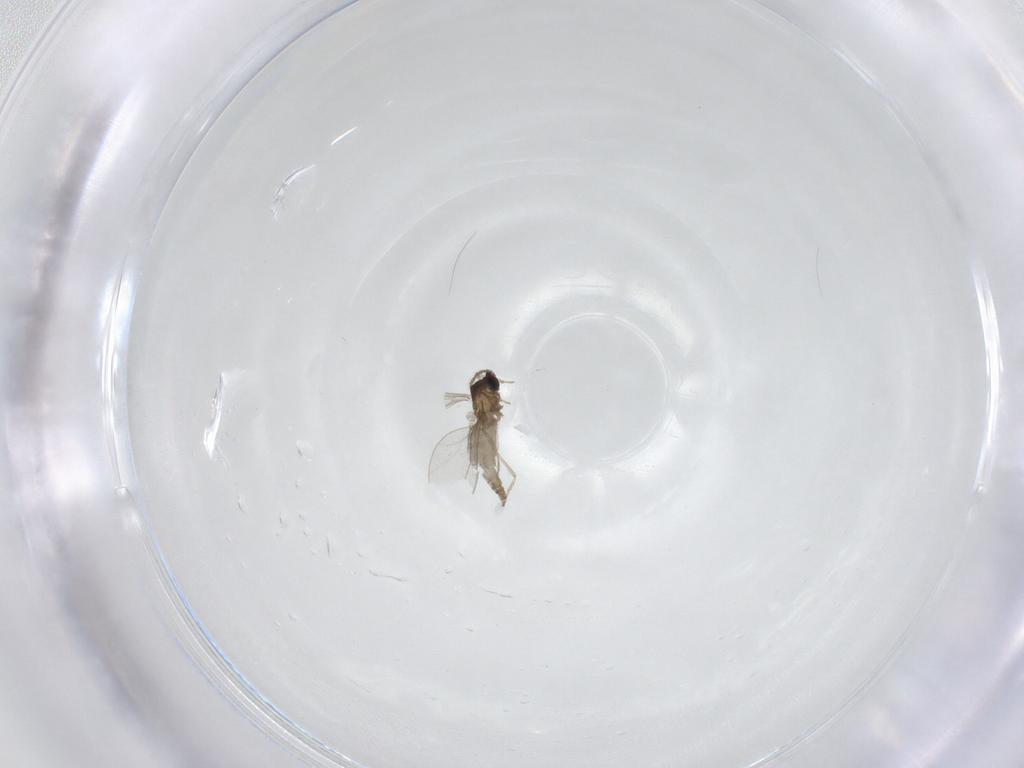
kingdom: Animalia
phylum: Arthropoda
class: Insecta
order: Diptera
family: Cecidomyiidae
